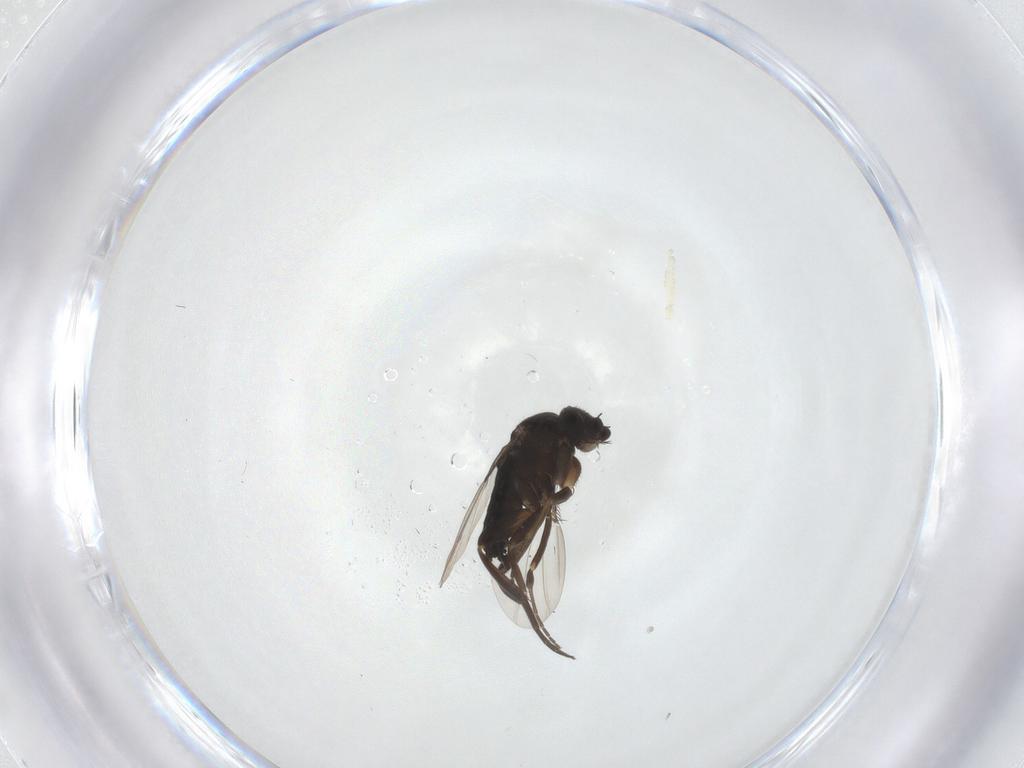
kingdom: Animalia
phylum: Arthropoda
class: Insecta
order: Diptera
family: Phoridae
